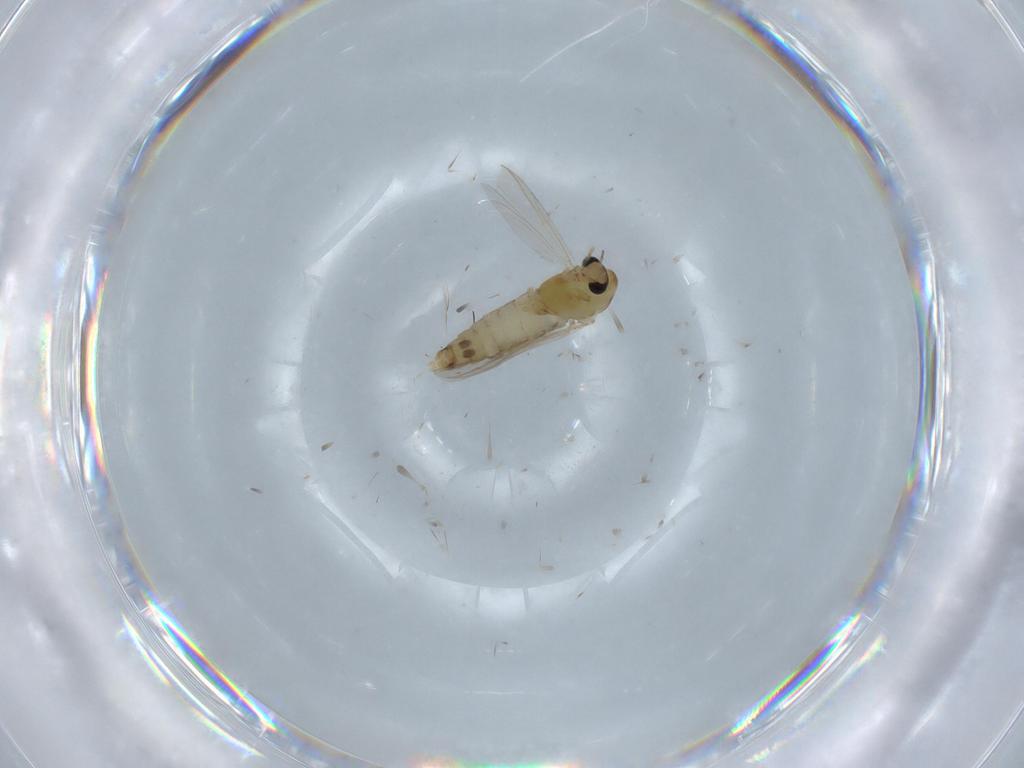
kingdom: Animalia
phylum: Arthropoda
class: Insecta
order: Diptera
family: Chironomidae
